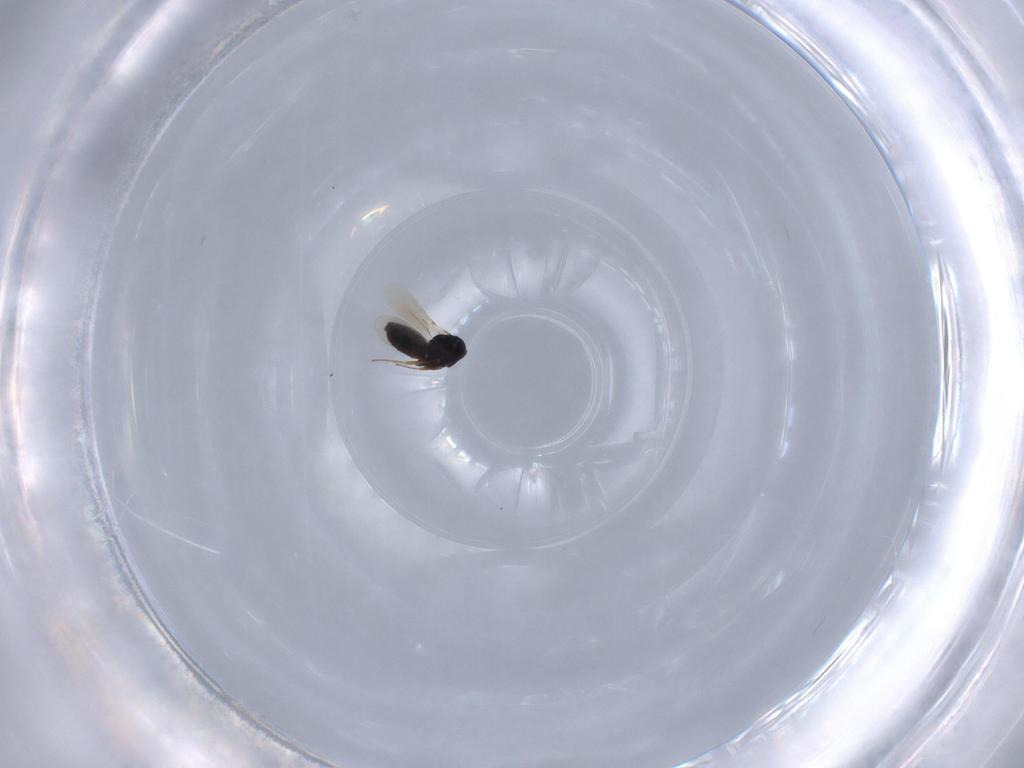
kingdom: Animalia
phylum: Arthropoda
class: Insecta
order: Hymenoptera
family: Scelionidae
